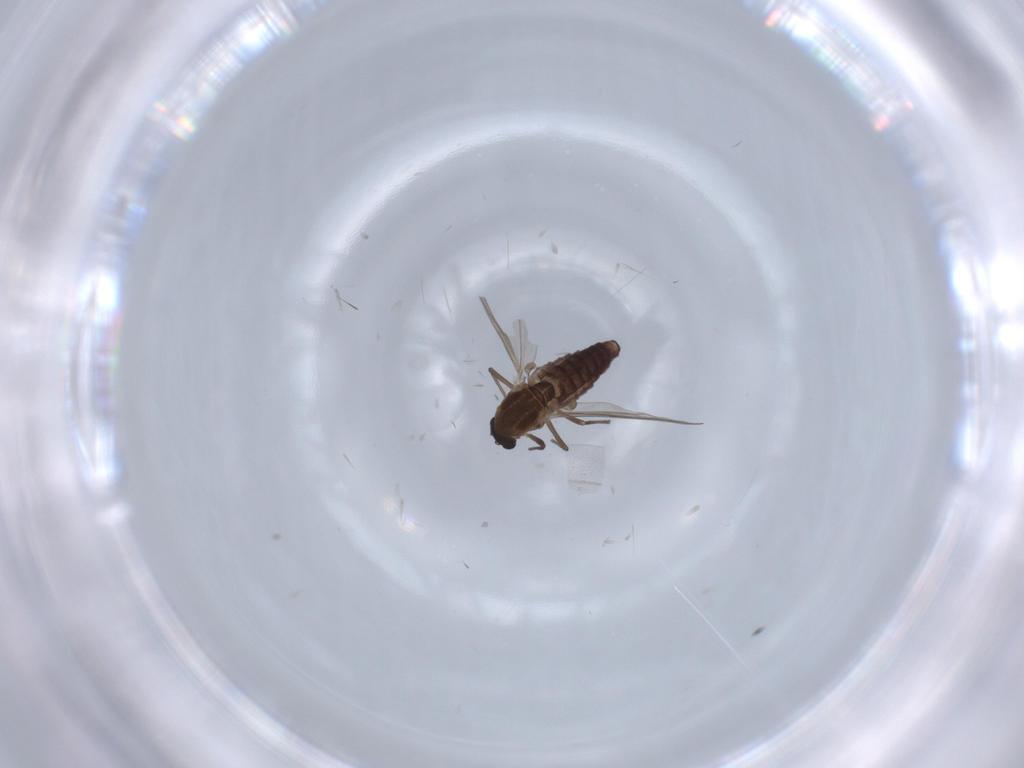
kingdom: Animalia
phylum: Arthropoda
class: Insecta
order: Diptera
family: Chironomidae
